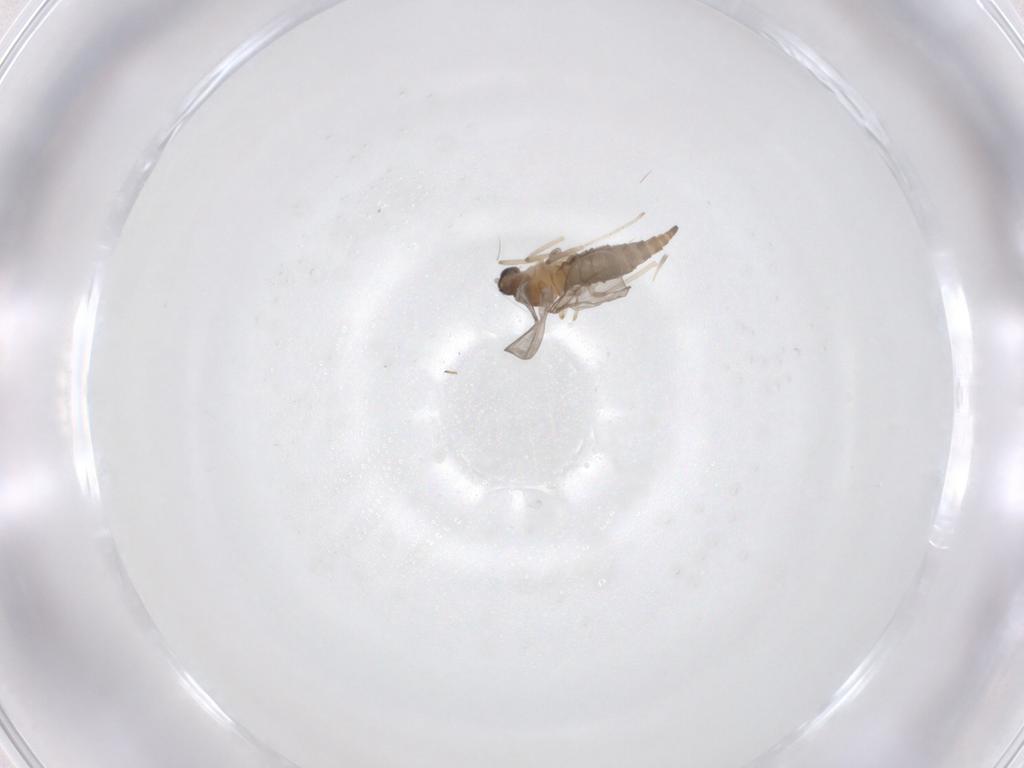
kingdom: Animalia
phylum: Arthropoda
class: Insecta
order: Diptera
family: Cecidomyiidae
